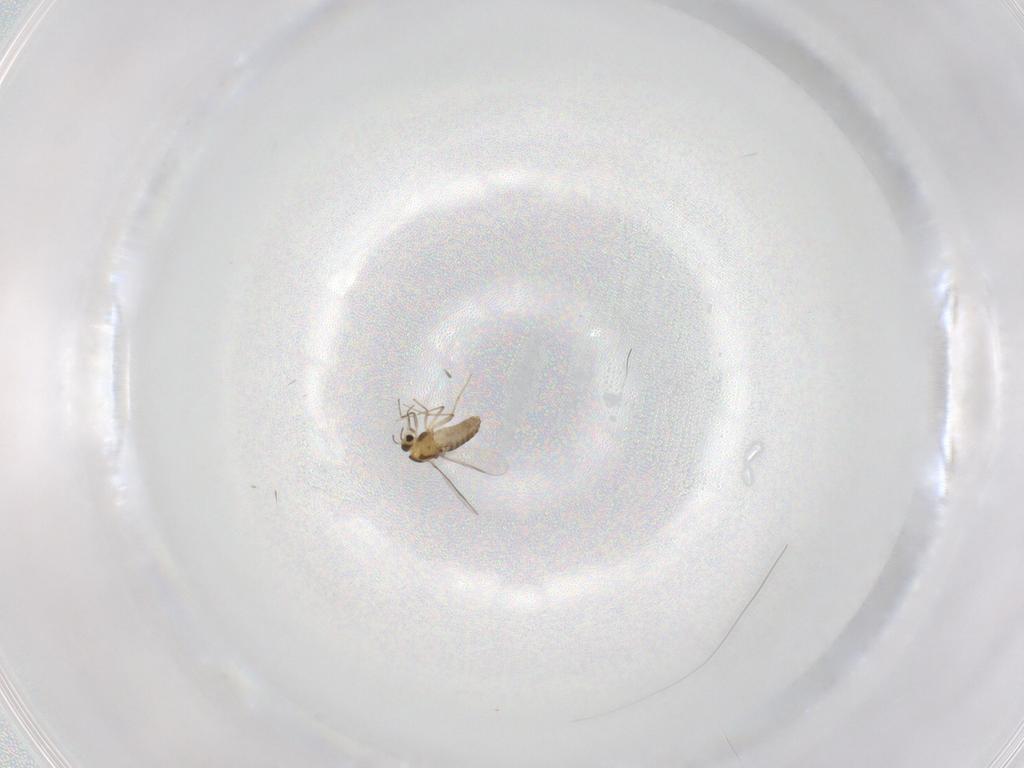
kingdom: Animalia
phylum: Arthropoda
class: Insecta
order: Diptera
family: Chironomidae
